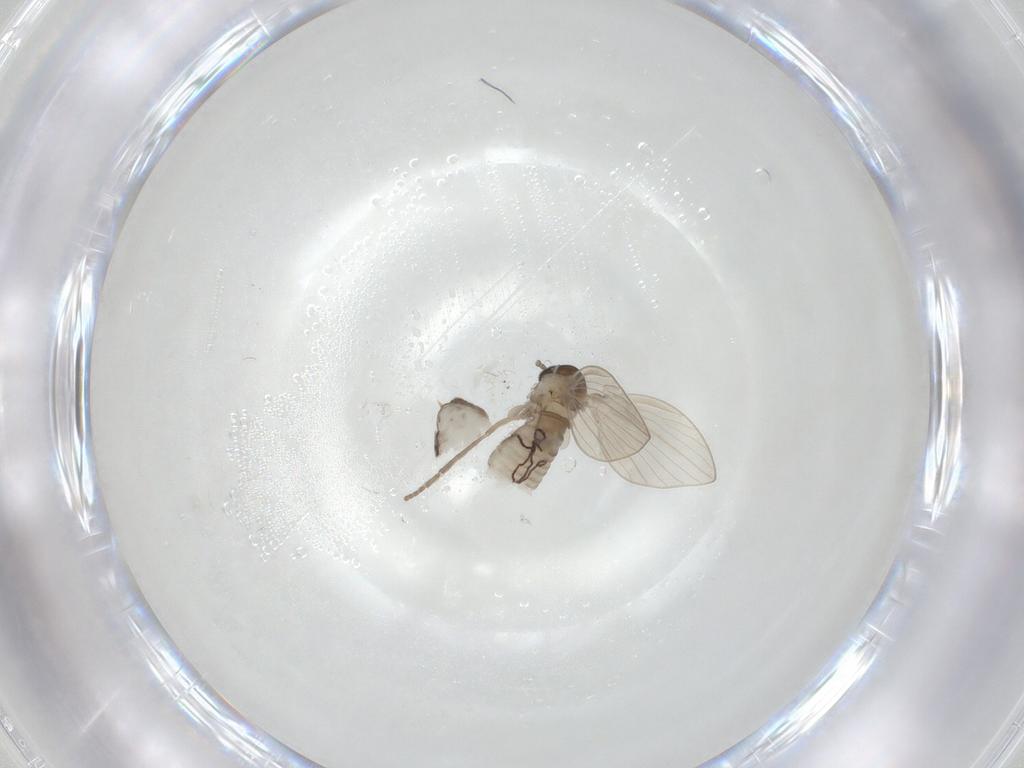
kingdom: Animalia
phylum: Arthropoda
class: Insecta
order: Diptera
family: Psychodidae
